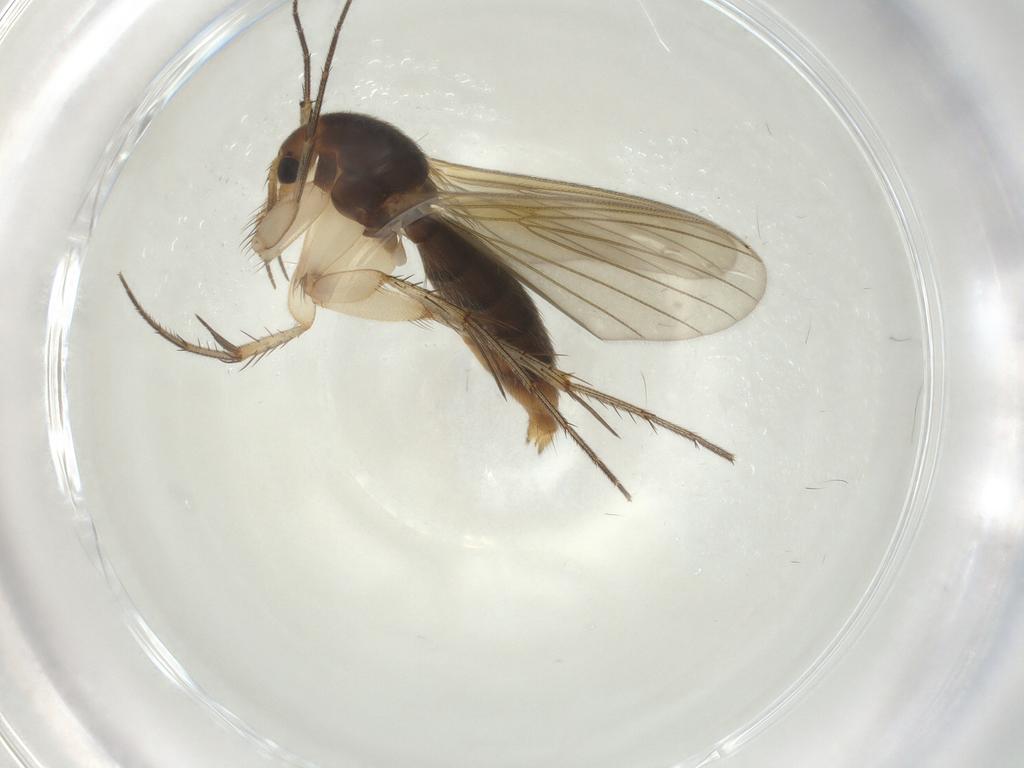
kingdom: Animalia
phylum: Arthropoda
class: Insecta
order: Diptera
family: Mycetophilidae
